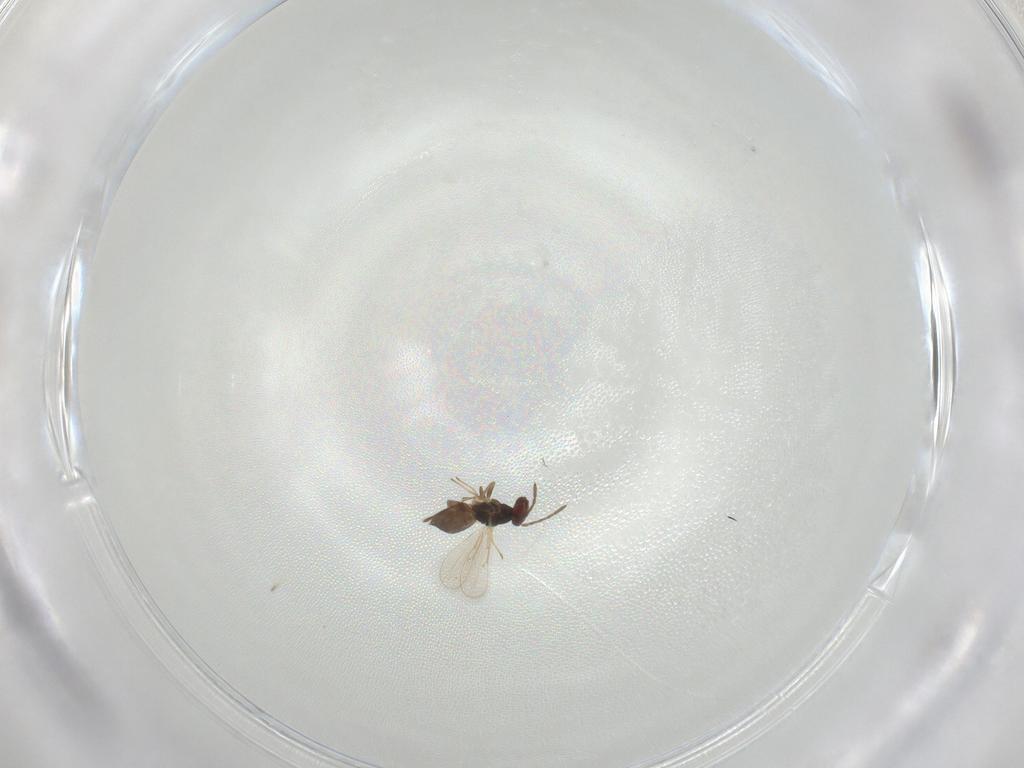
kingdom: Animalia
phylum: Arthropoda
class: Insecta
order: Hymenoptera
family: Eulophidae
